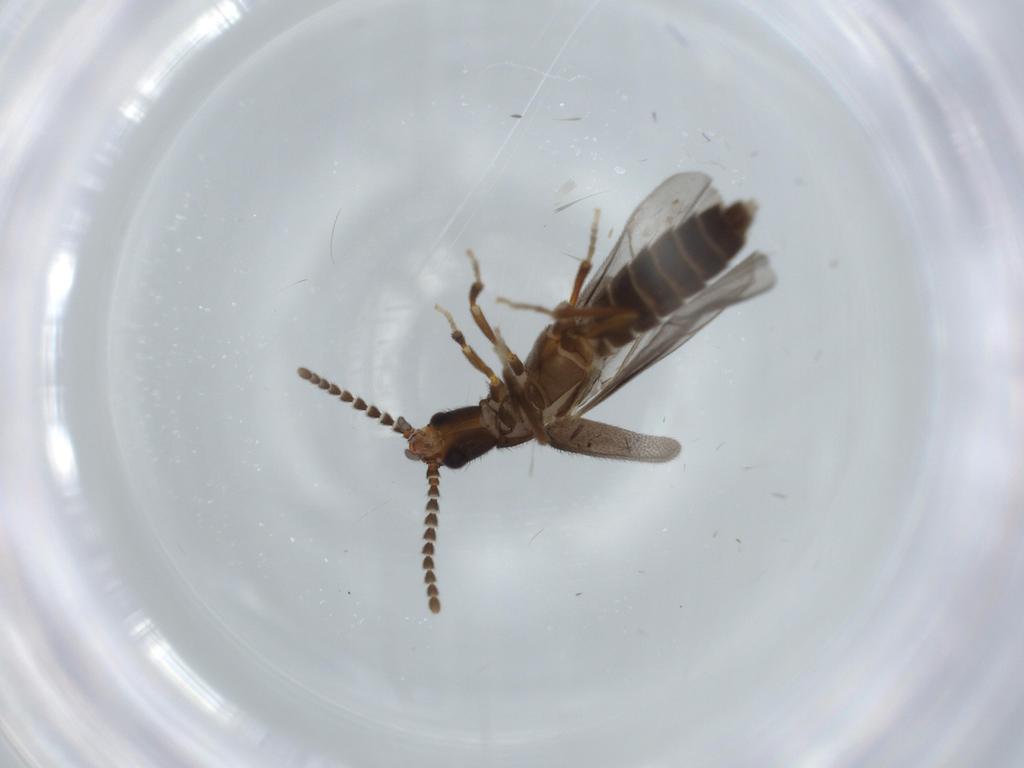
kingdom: Animalia
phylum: Arthropoda
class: Insecta
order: Coleoptera
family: Omethidae
